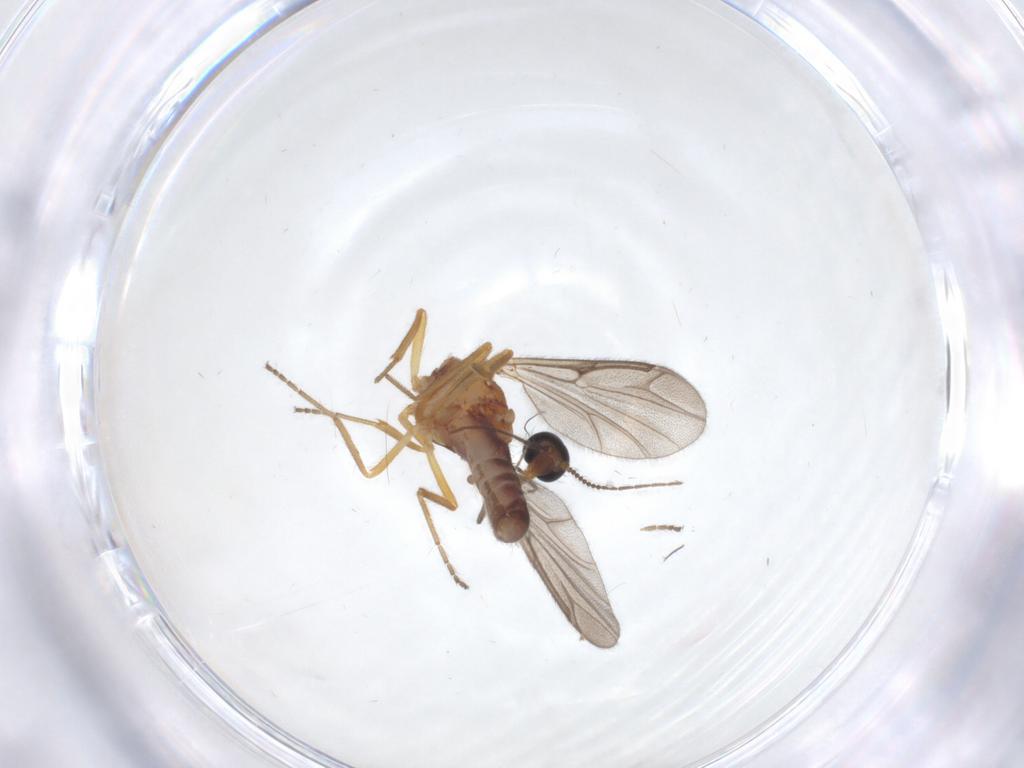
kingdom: Animalia
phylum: Arthropoda
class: Insecta
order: Diptera
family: Ceratopogonidae
